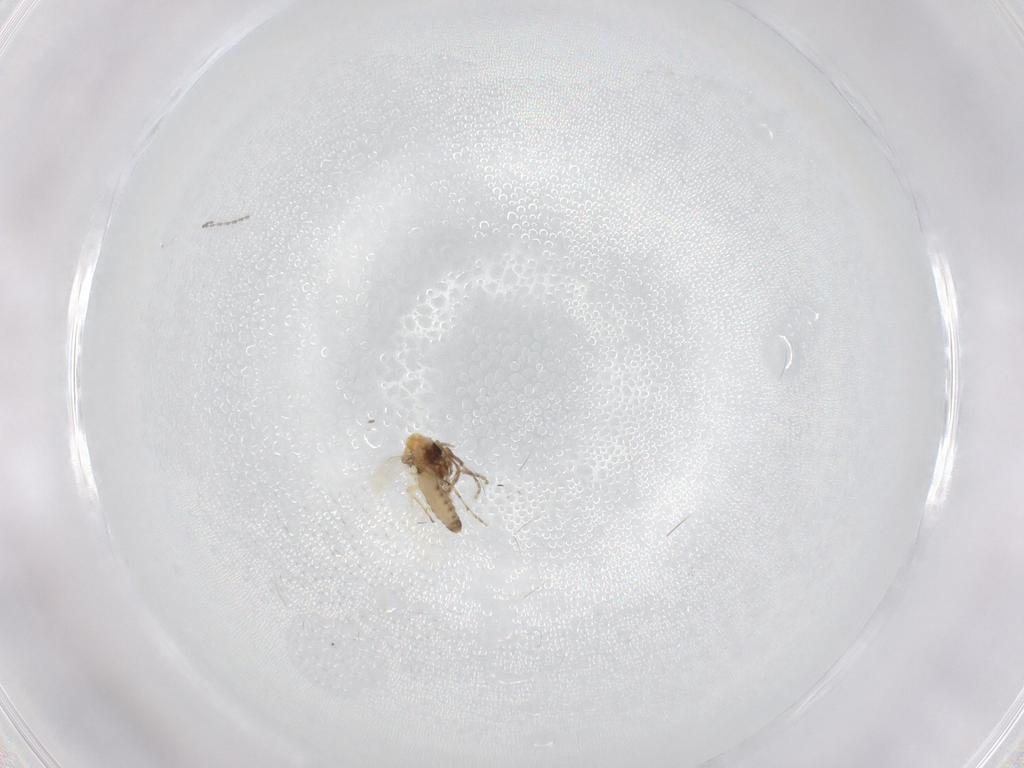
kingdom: Animalia
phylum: Arthropoda
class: Insecta
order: Diptera
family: Cecidomyiidae
